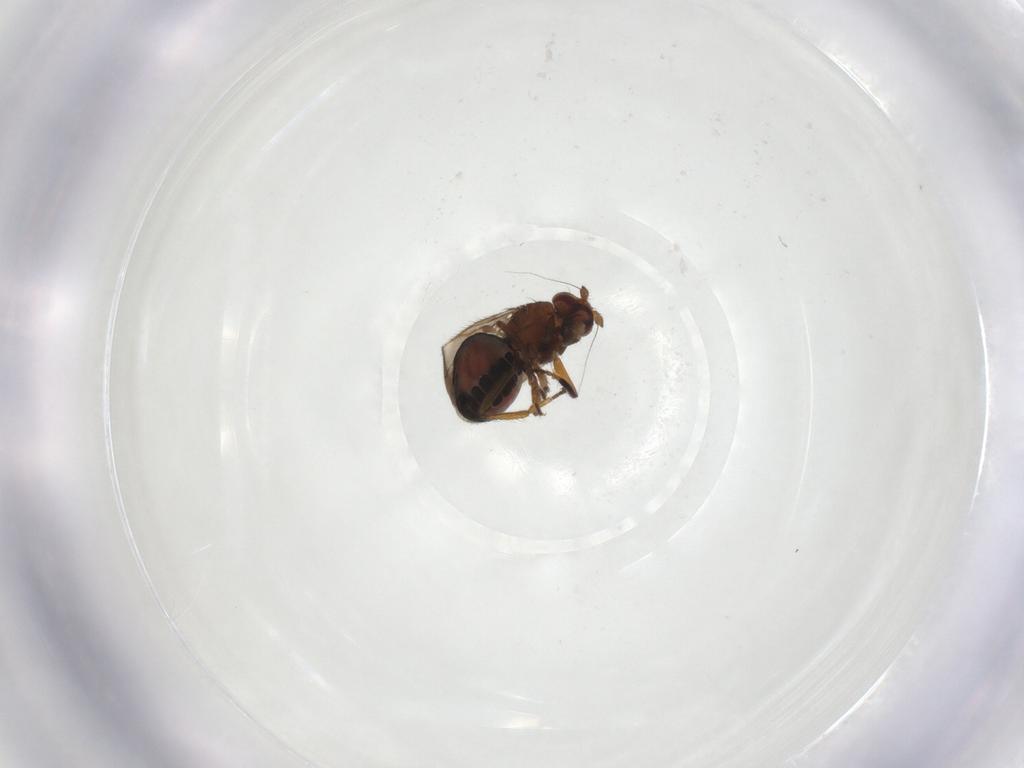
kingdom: Animalia
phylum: Arthropoda
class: Insecta
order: Diptera
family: Sphaeroceridae
